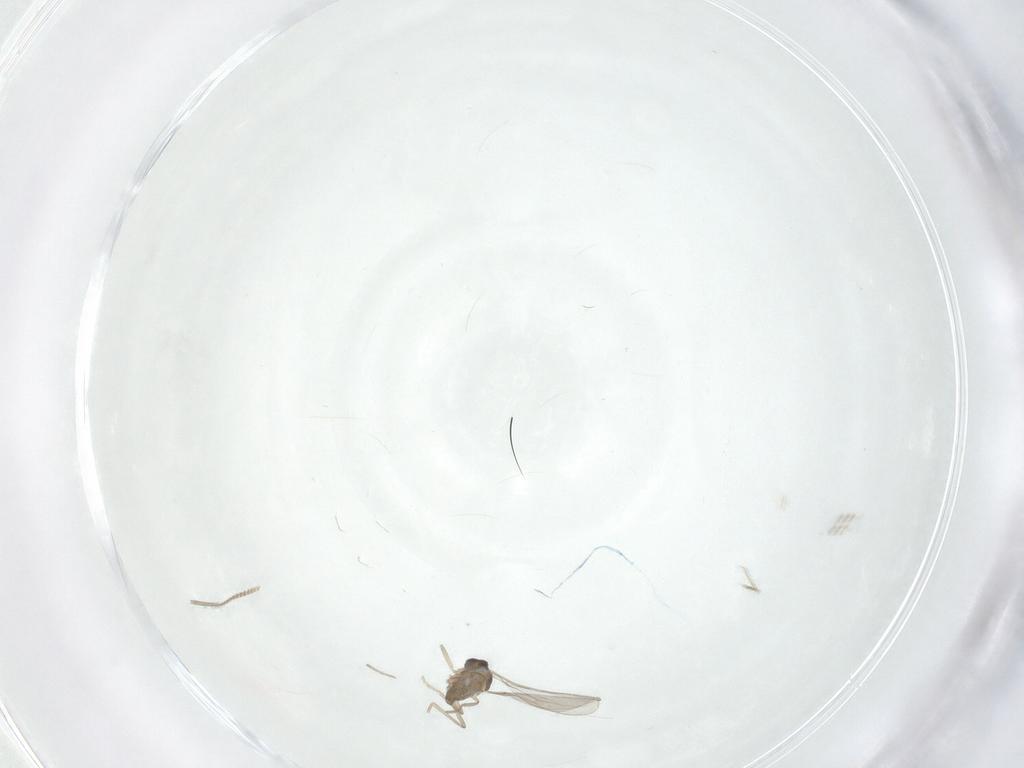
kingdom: Animalia
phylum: Arthropoda
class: Insecta
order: Diptera
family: Cecidomyiidae
